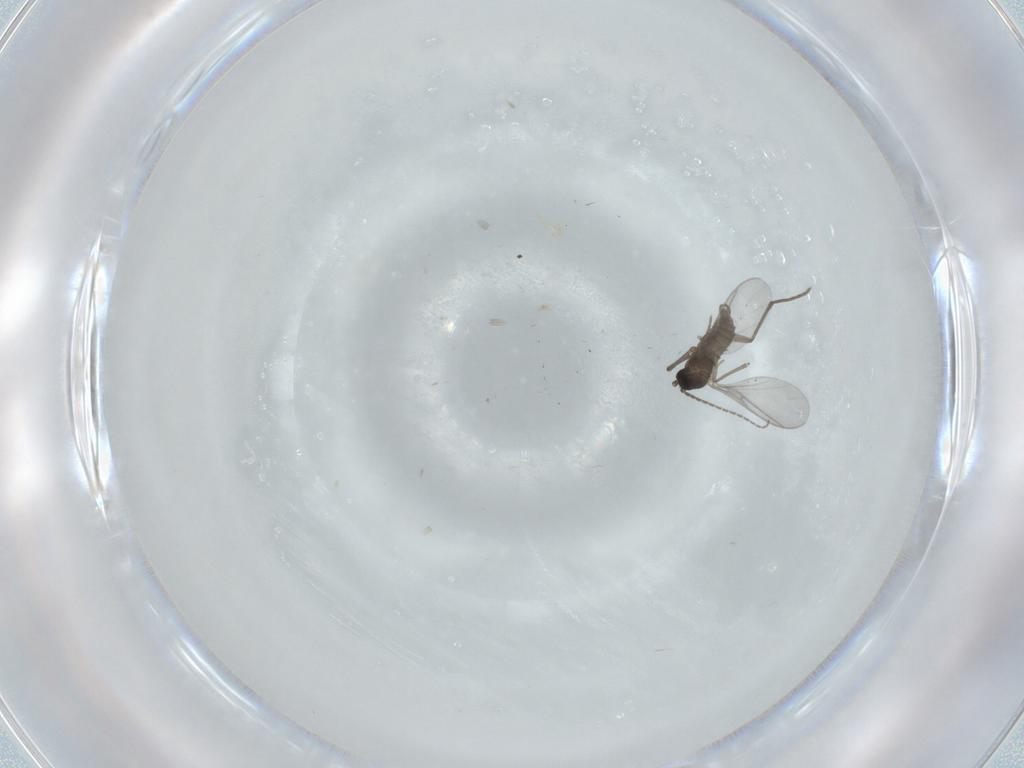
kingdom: Animalia
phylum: Arthropoda
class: Insecta
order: Diptera
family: Sciaridae
